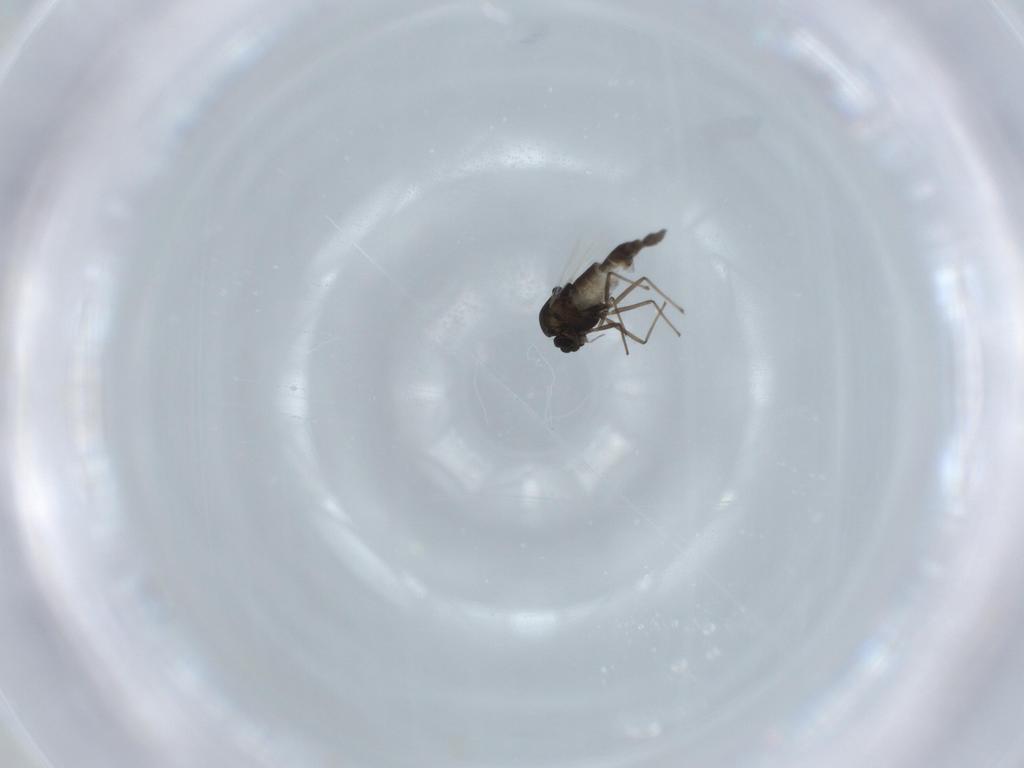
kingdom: Animalia
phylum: Arthropoda
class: Insecta
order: Diptera
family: Chironomidae
